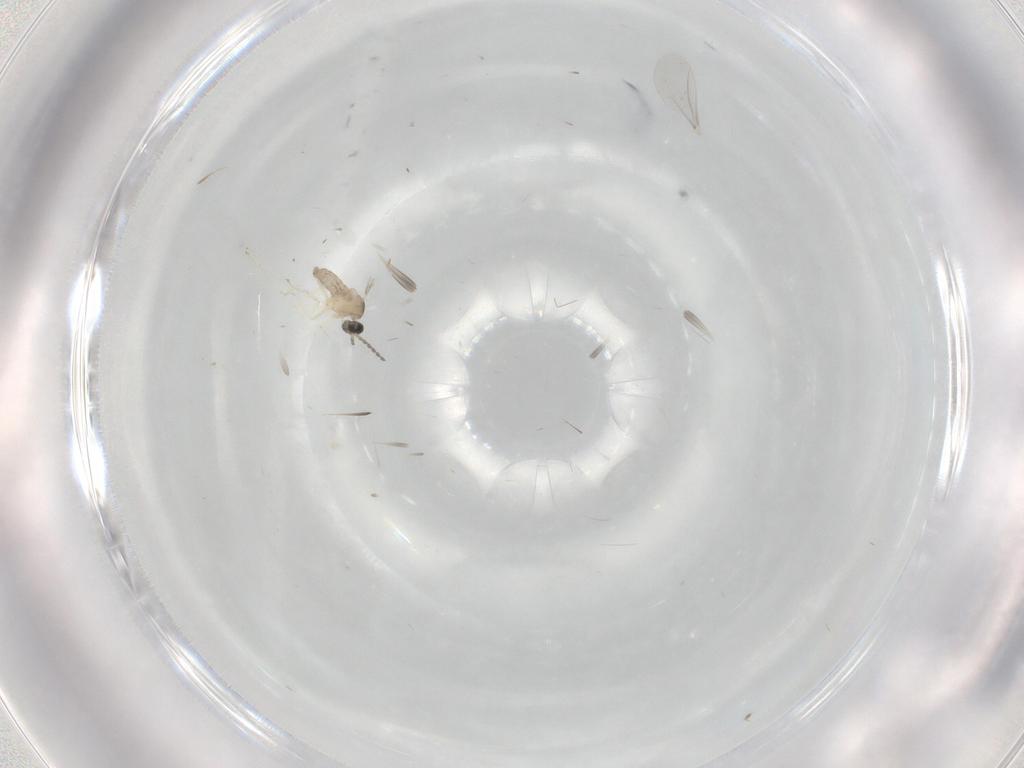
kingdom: Animalia
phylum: Arthropoda
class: Insecta
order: Diptera
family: Cecidomyiidae
